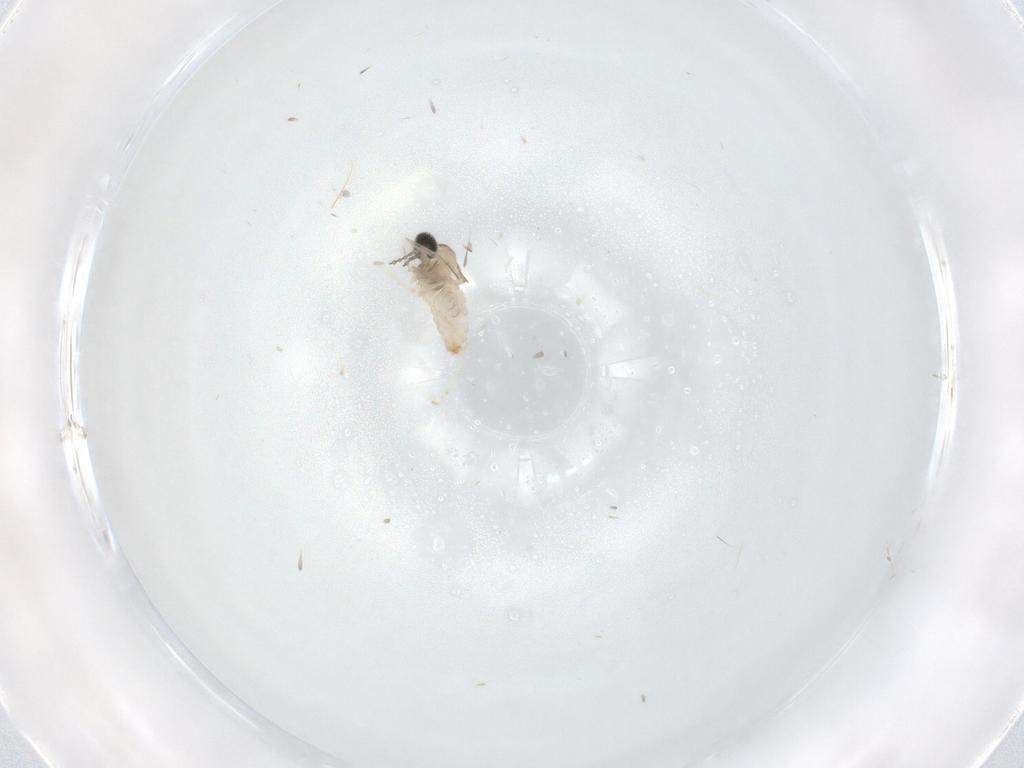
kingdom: Animalia
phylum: Arthropoda
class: Insecta
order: Diptera
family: Cecidomyiidae
